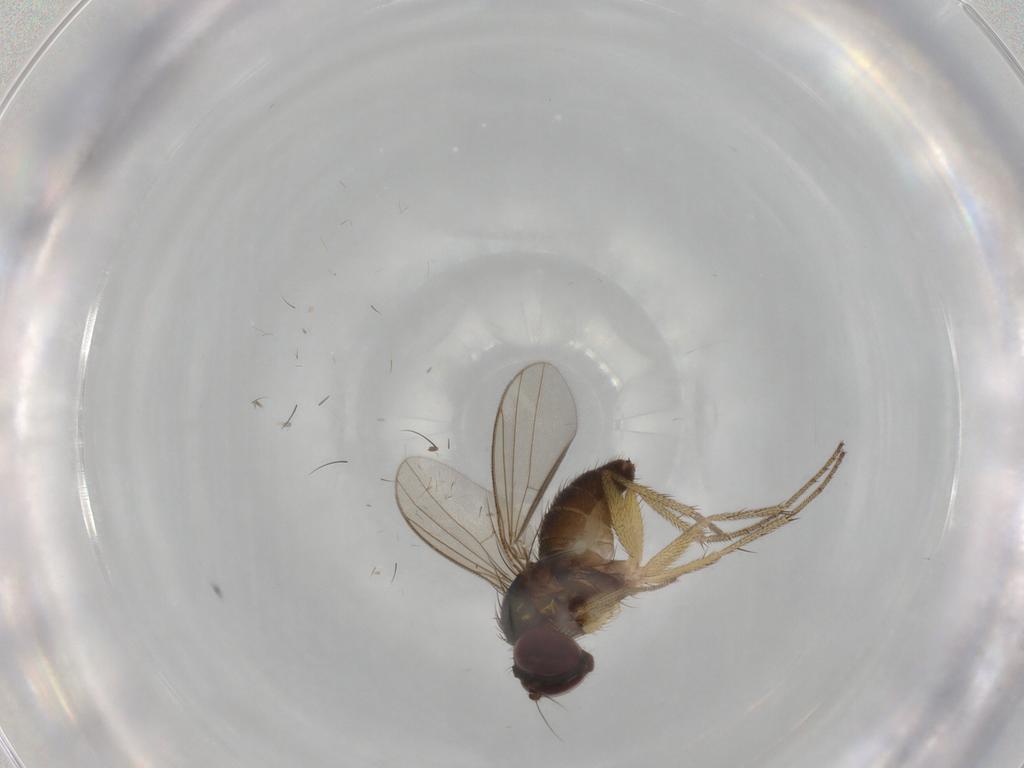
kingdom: Animalia
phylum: Arthropoda
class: Insecta
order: Diptera
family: Dolichopodidae
